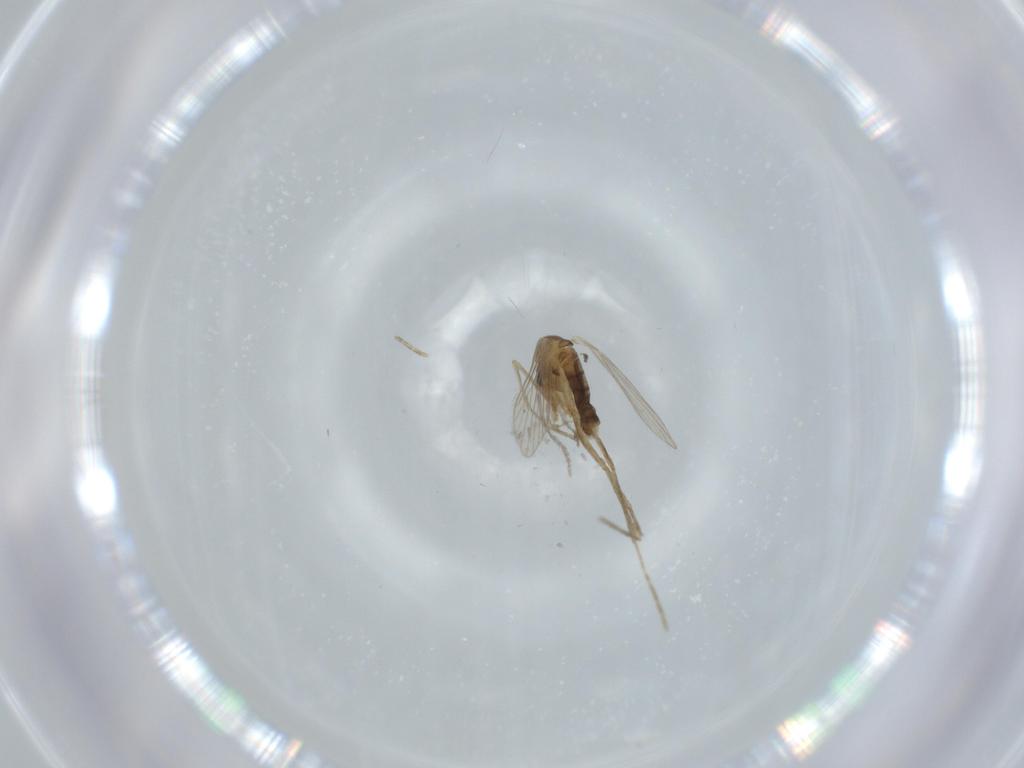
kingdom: Animalia
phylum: Arthropoda
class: Insecta
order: Diptera
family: Psychodidae
